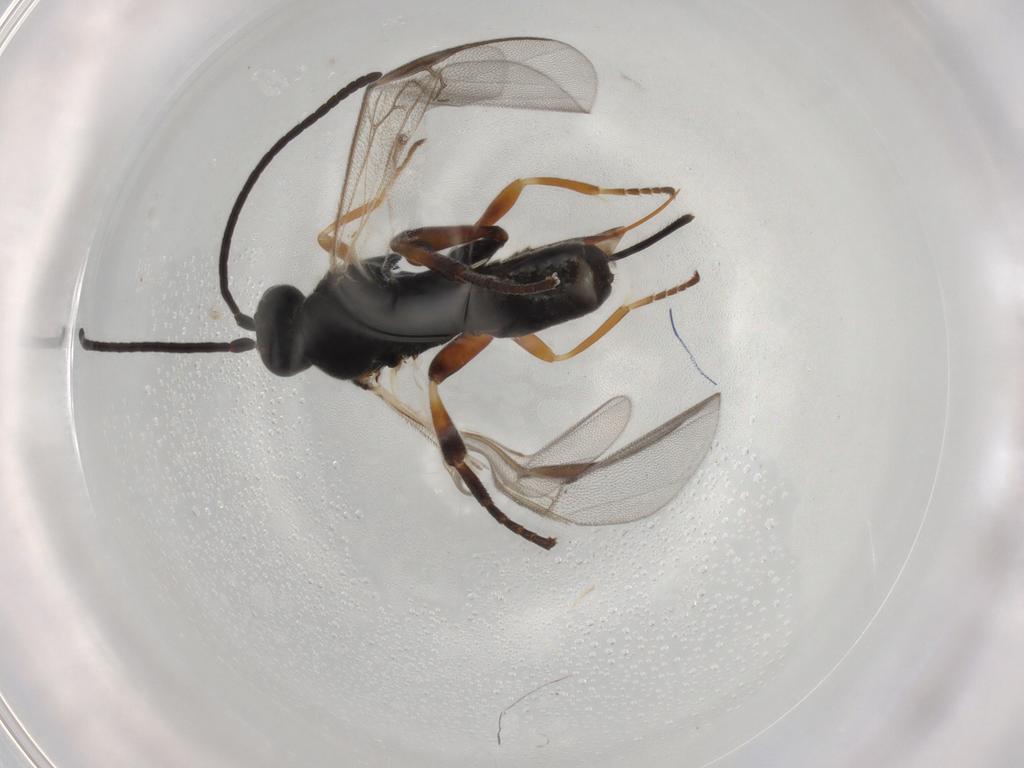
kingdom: Animalia
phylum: Arthropoda
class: Insecta
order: Hymenoptera
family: Braconidae
